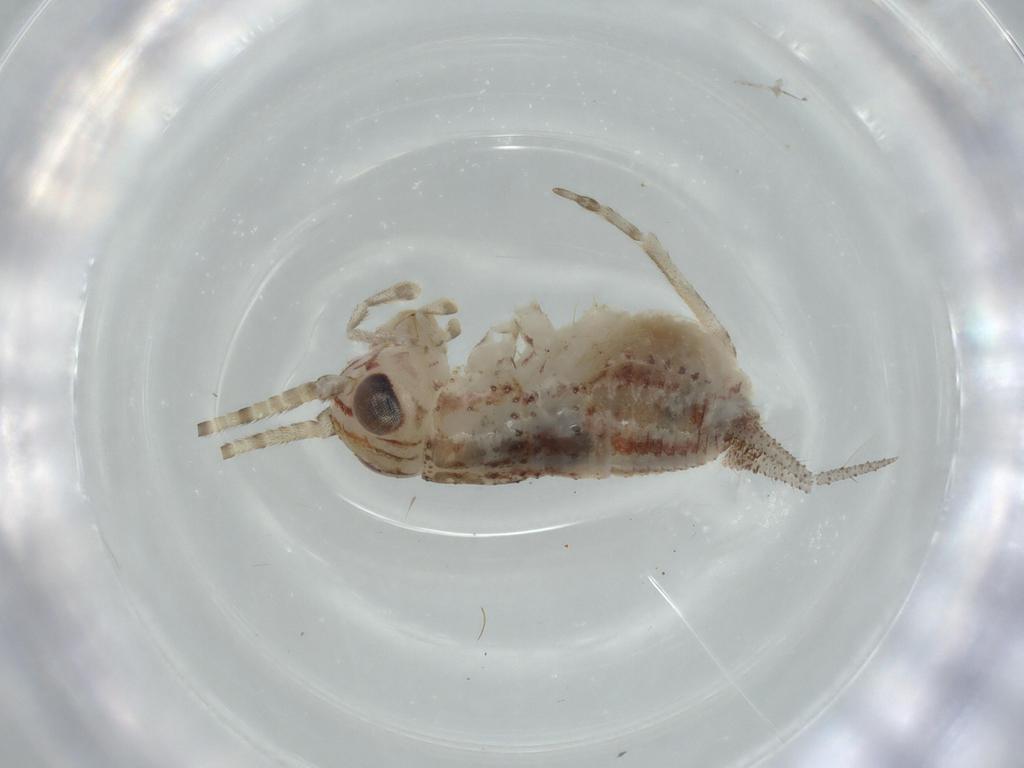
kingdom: Animalia
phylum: Arthropoda
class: Insecta
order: Orthoptera
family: Trigonidiidae
